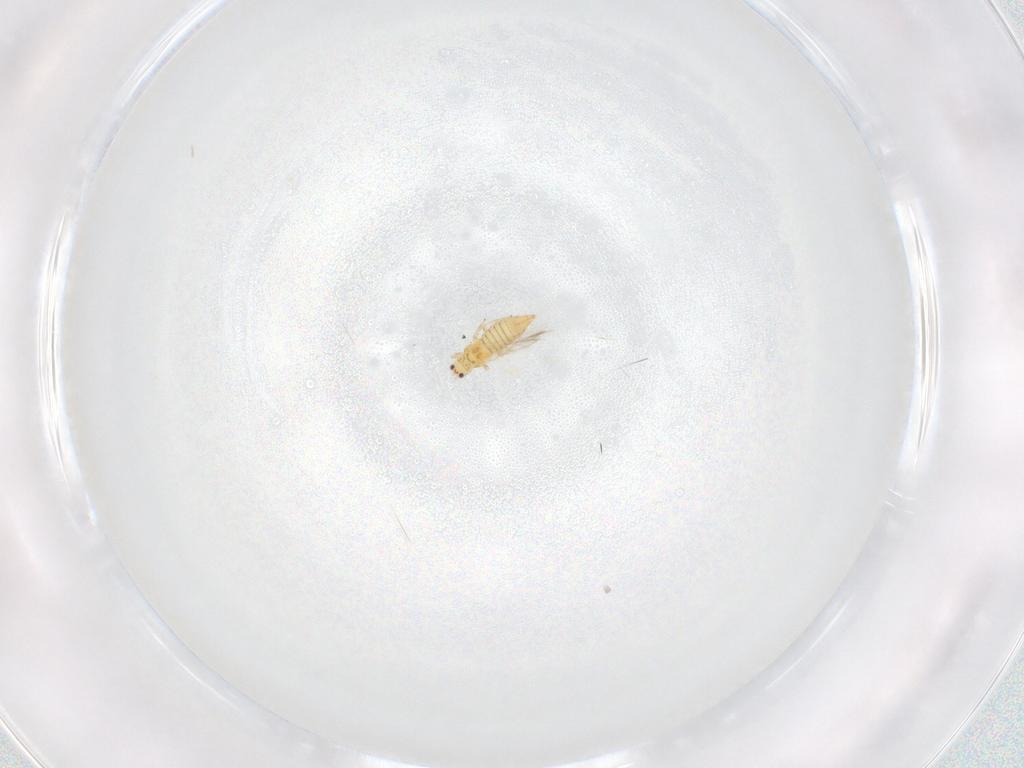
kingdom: Animalia
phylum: Arthropoda
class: Insecta
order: Thysanoptera
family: Thripidae
